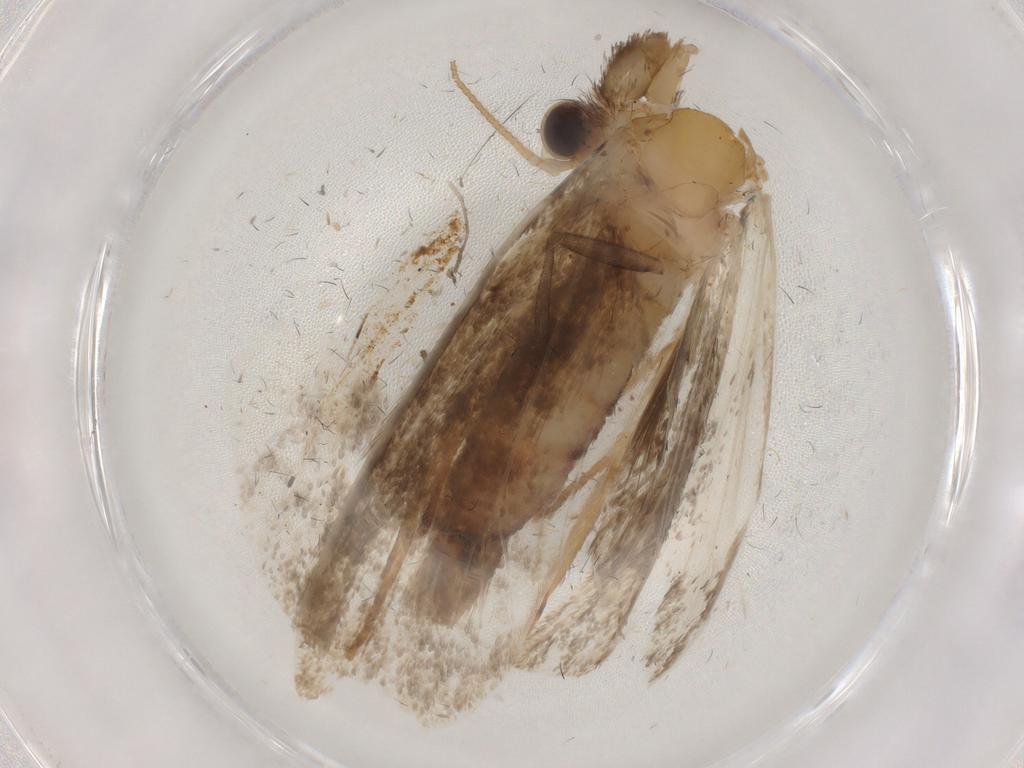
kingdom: Animalia
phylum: Arthropoda
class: Insecta
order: Lepidoptera
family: Tineidae
